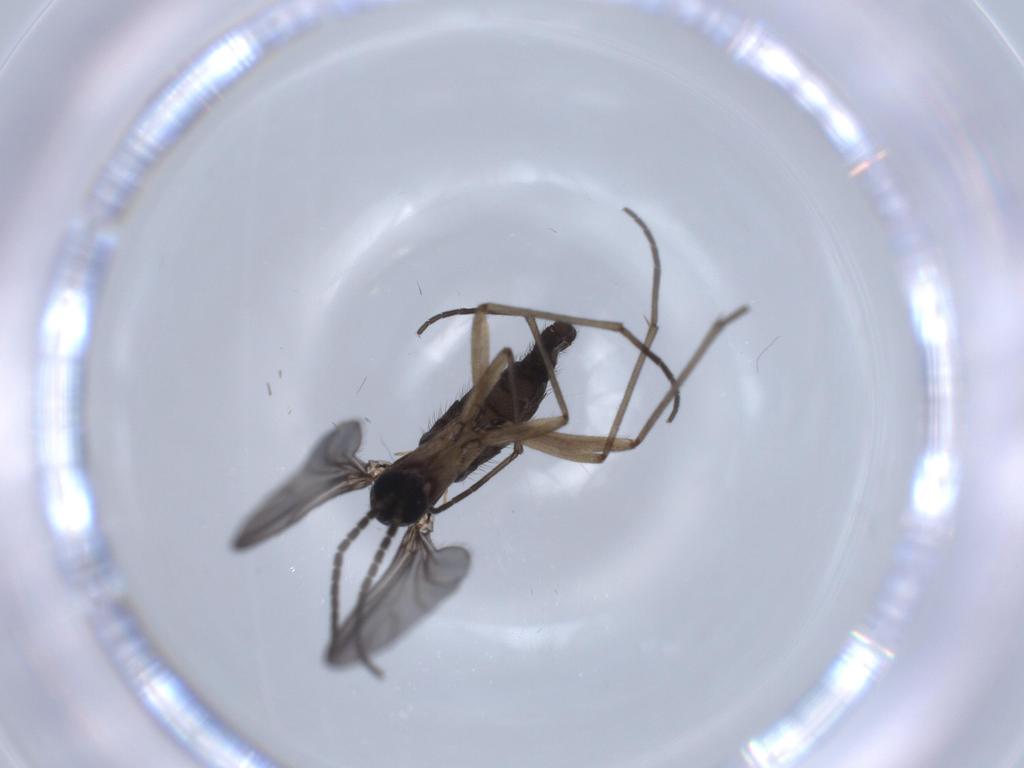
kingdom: Animalia
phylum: Arthropoda
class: Insecta
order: Diptera
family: Sciaridae
